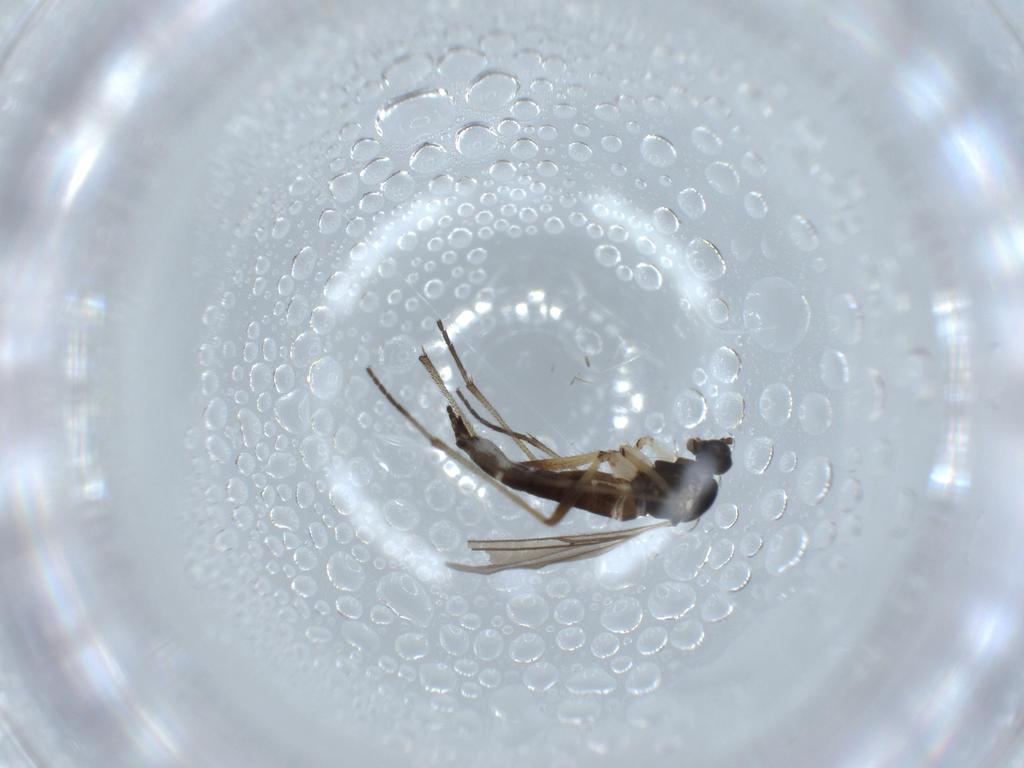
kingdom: Animalia
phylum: Arthropoda
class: Insecta
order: Diptera
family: Sciaridae
